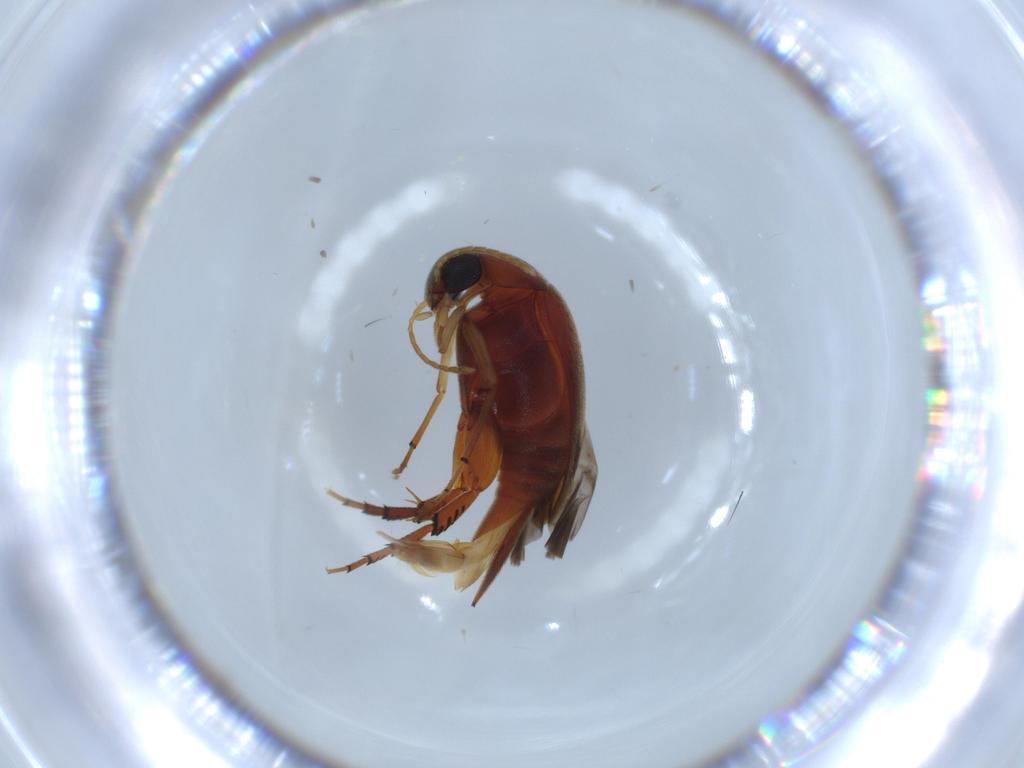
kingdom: Animalia
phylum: Arthropoda
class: Insecta
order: Coleoptera
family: Mordellidae
